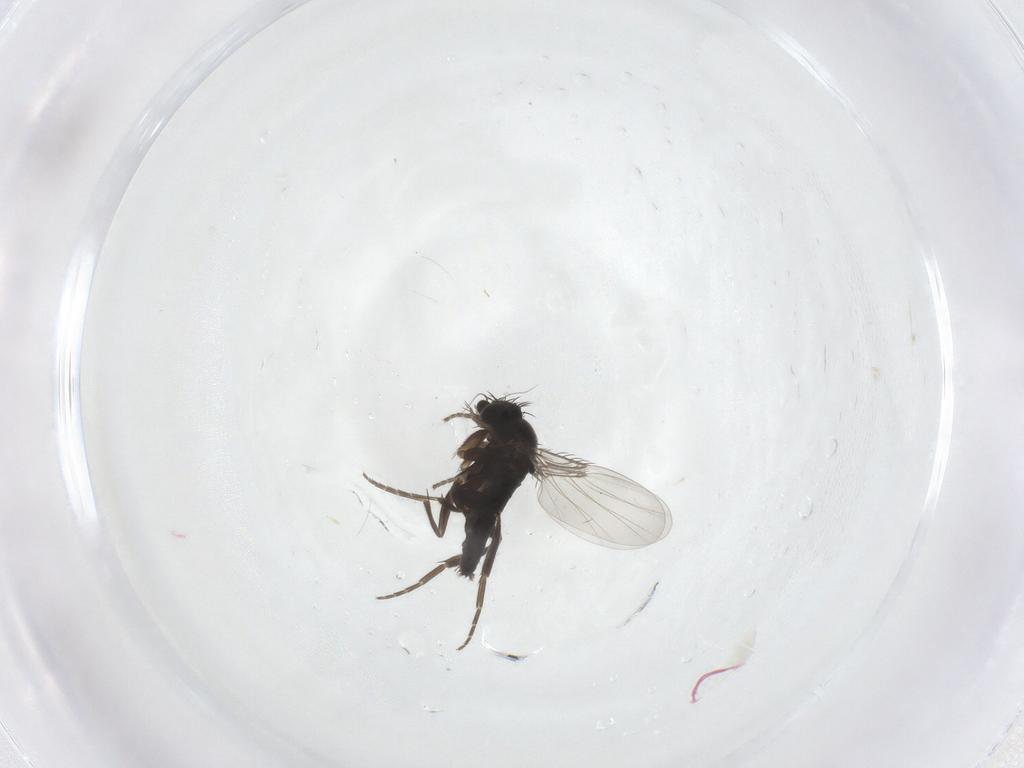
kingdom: Animalia
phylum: Arthropoda
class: Insecta
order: Diptera
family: Phoridae
